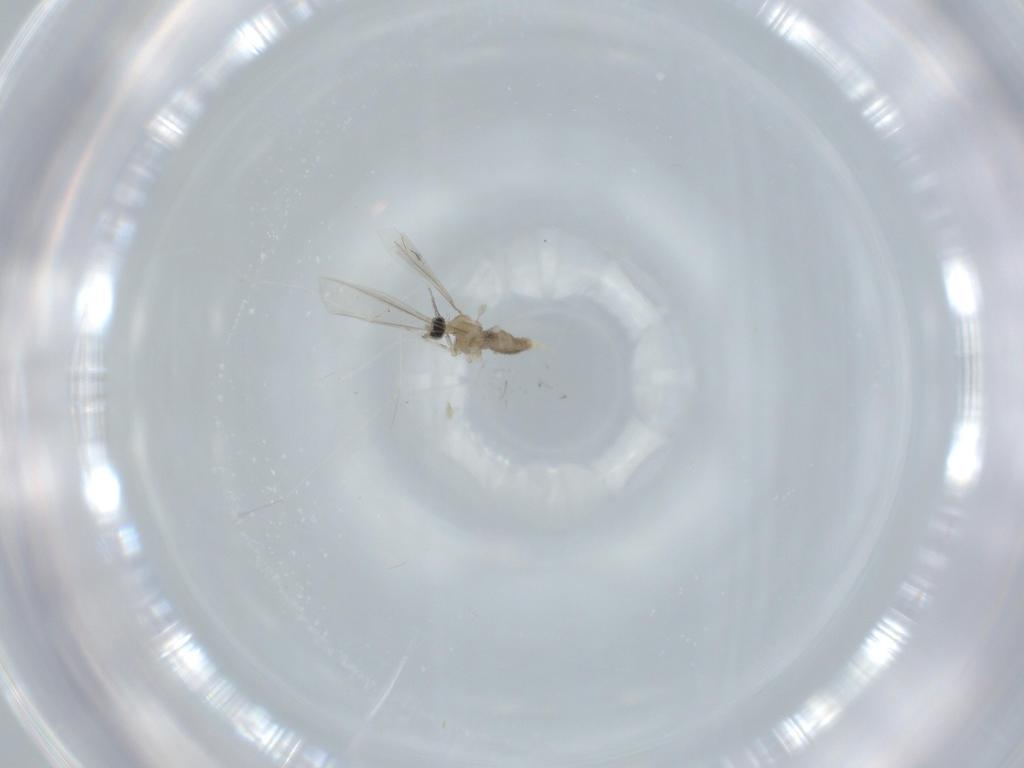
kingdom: Animalia
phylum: Arthropoda
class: Insecta
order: Diptera
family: Cecidomyiidae
